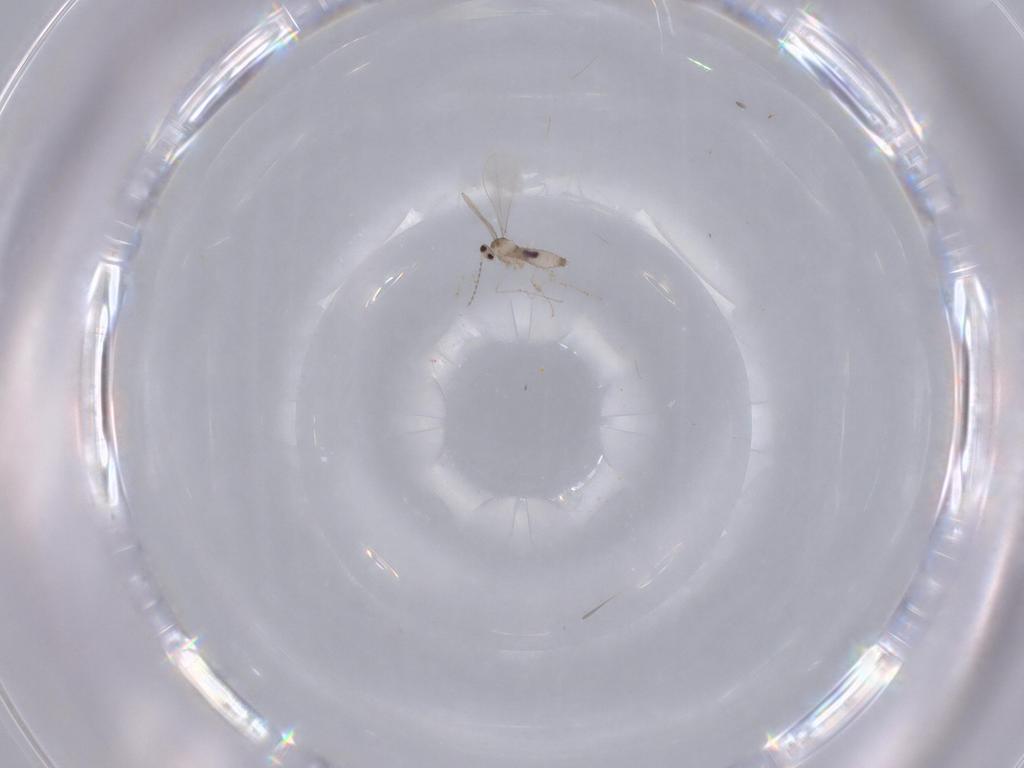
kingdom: Animalia
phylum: Arthropoda
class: Insecta
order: Diptera
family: Cecidomyiidae
